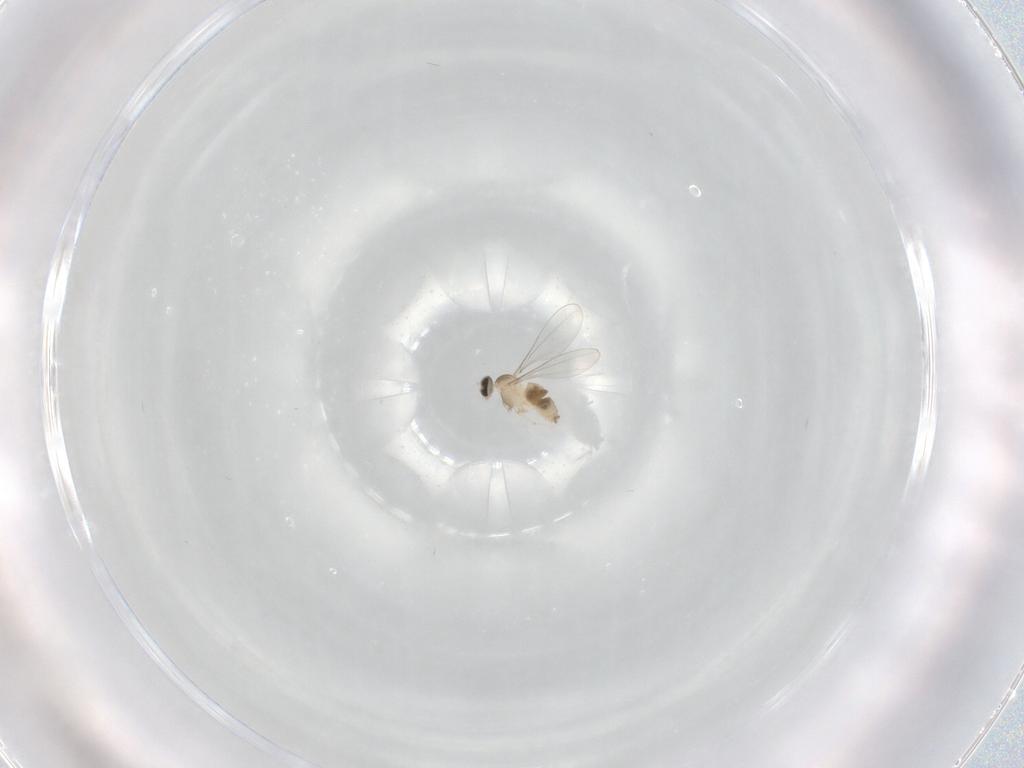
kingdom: Animalia
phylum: Arthropoda
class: Insecta
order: Diptera
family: Cecidomyiidae
